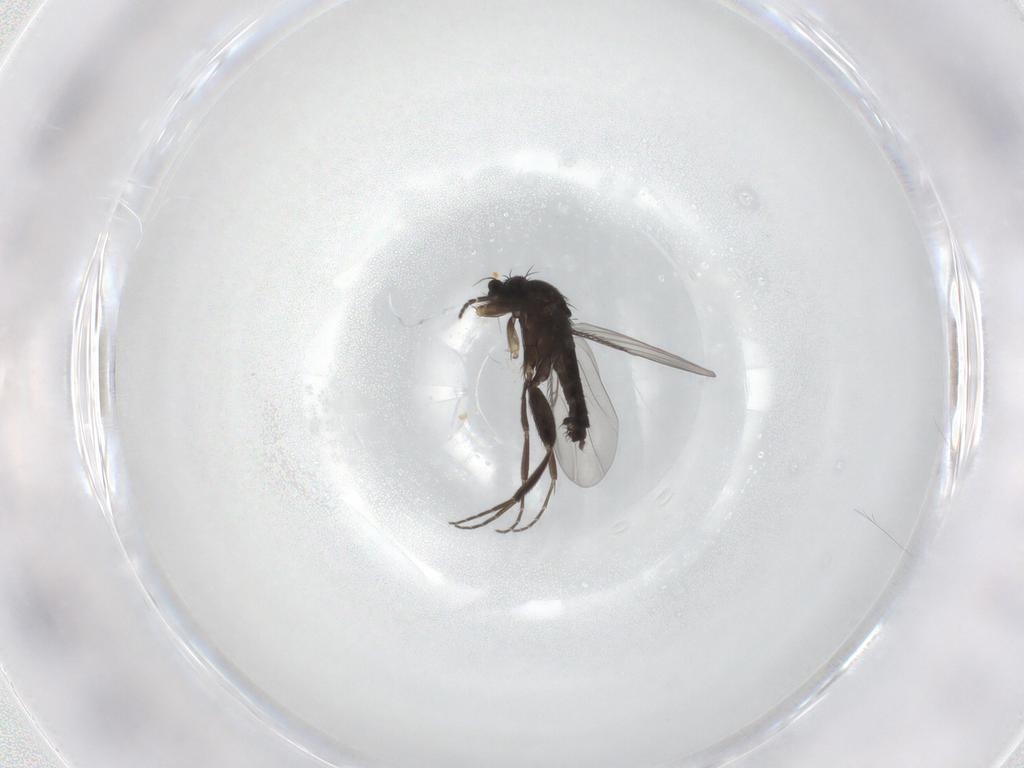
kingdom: Animalia
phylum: Arthropoda
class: Insecta
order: Diptera
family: Phoridae
